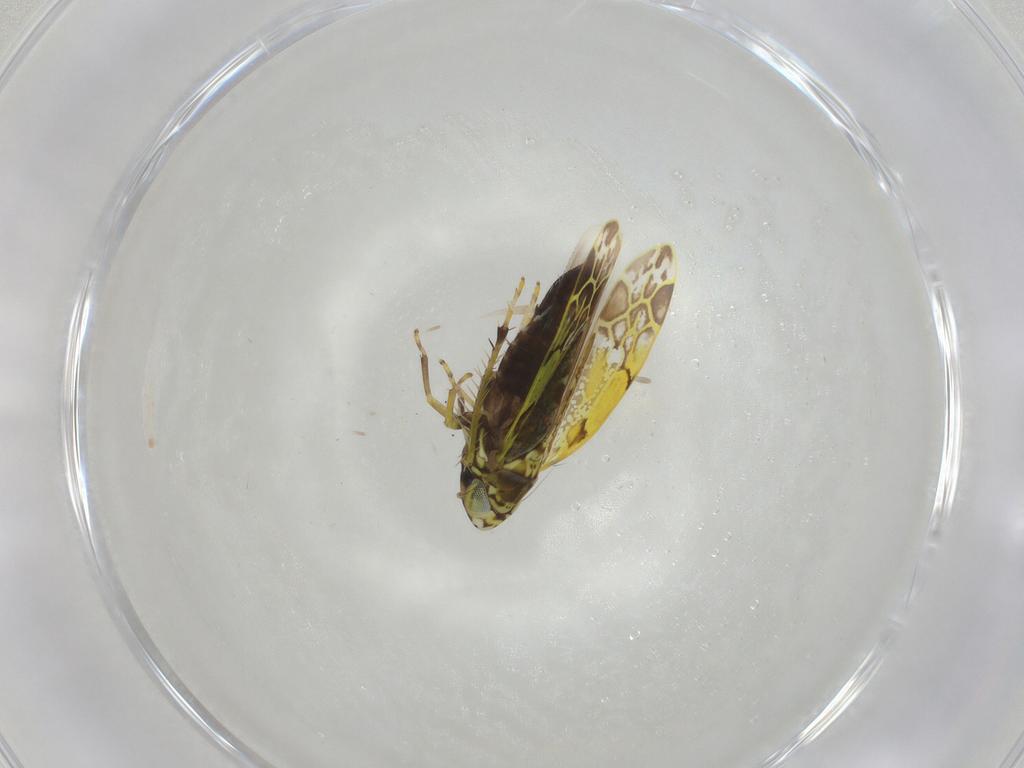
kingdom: Animalia
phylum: Arthropoda
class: Insecta
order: Hemiptera
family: Cicadellidae
